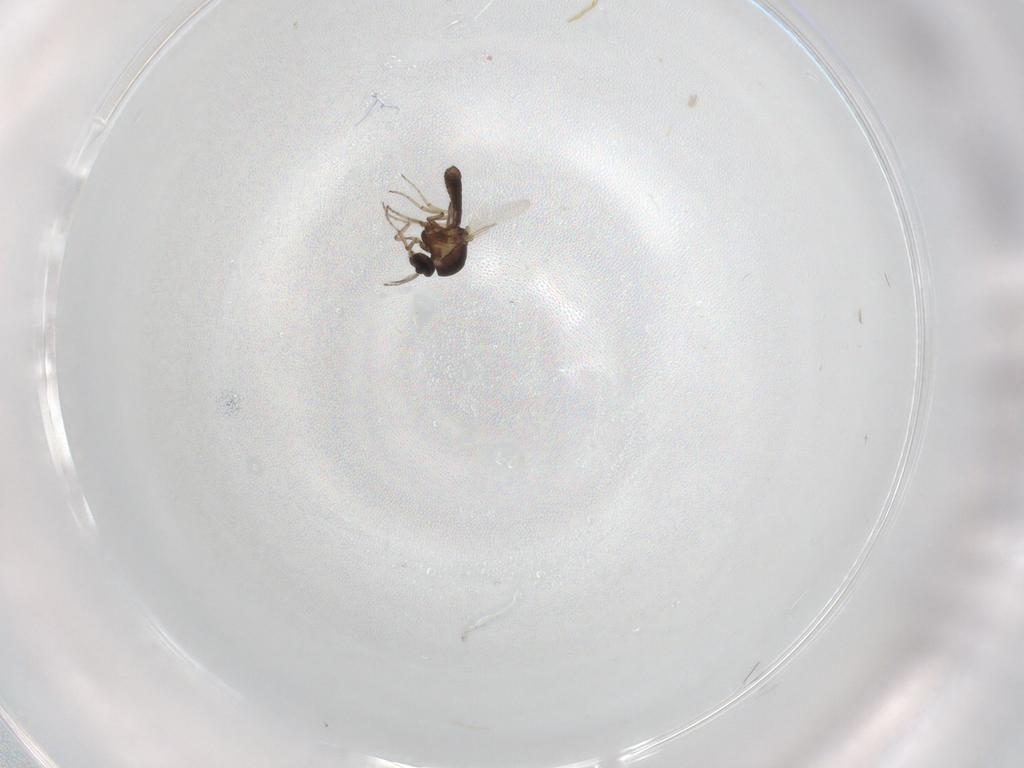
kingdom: Animalia
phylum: Arthropoda
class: Insecta
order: Diptera
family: Ceratopogonidae
